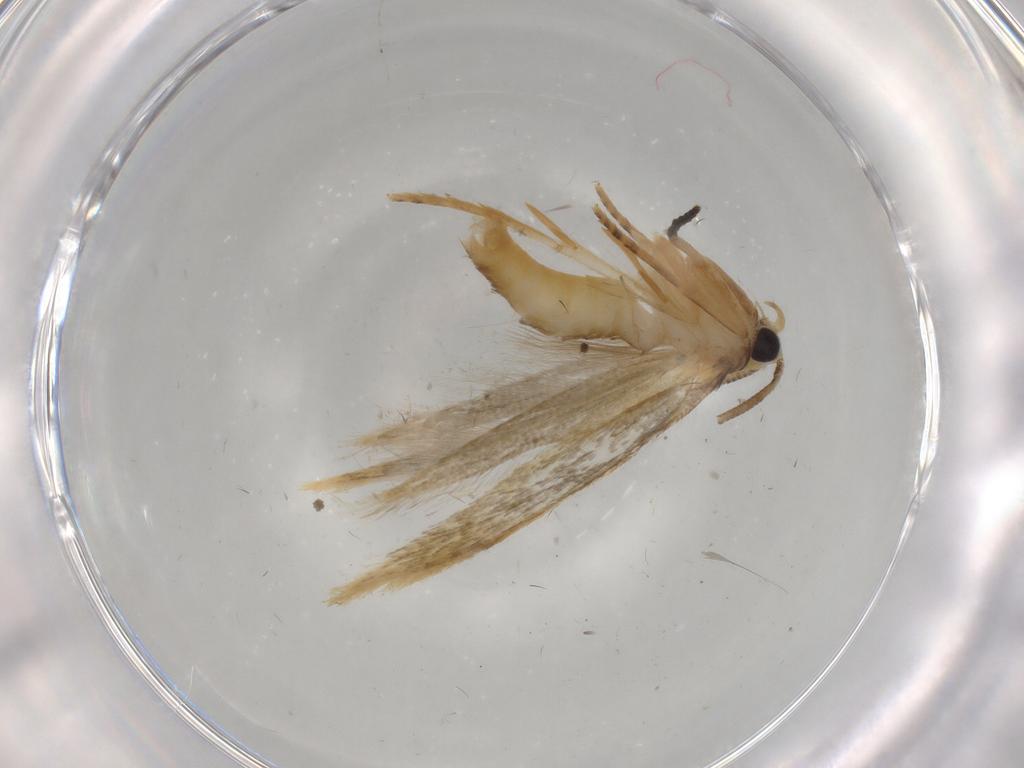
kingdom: Animalia
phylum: Arthropoda
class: Insecta
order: Lepidoptera
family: Tineidae
